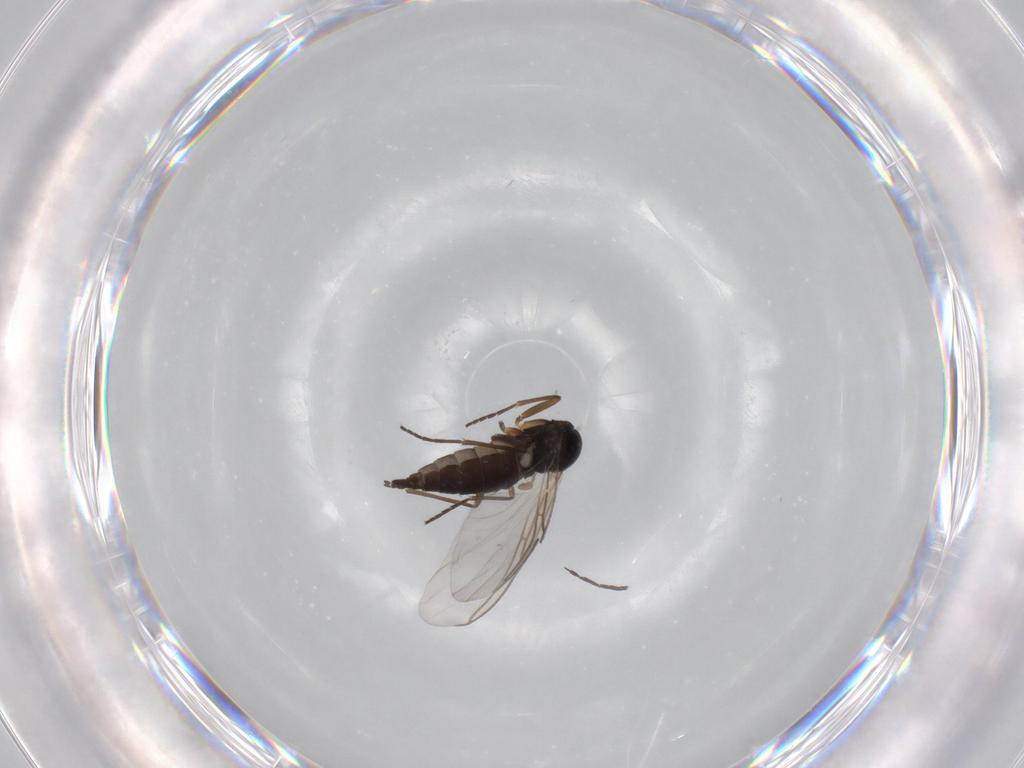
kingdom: Animalia
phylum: Arthropoda
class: Insecta
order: Diptera
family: Sciaridae
